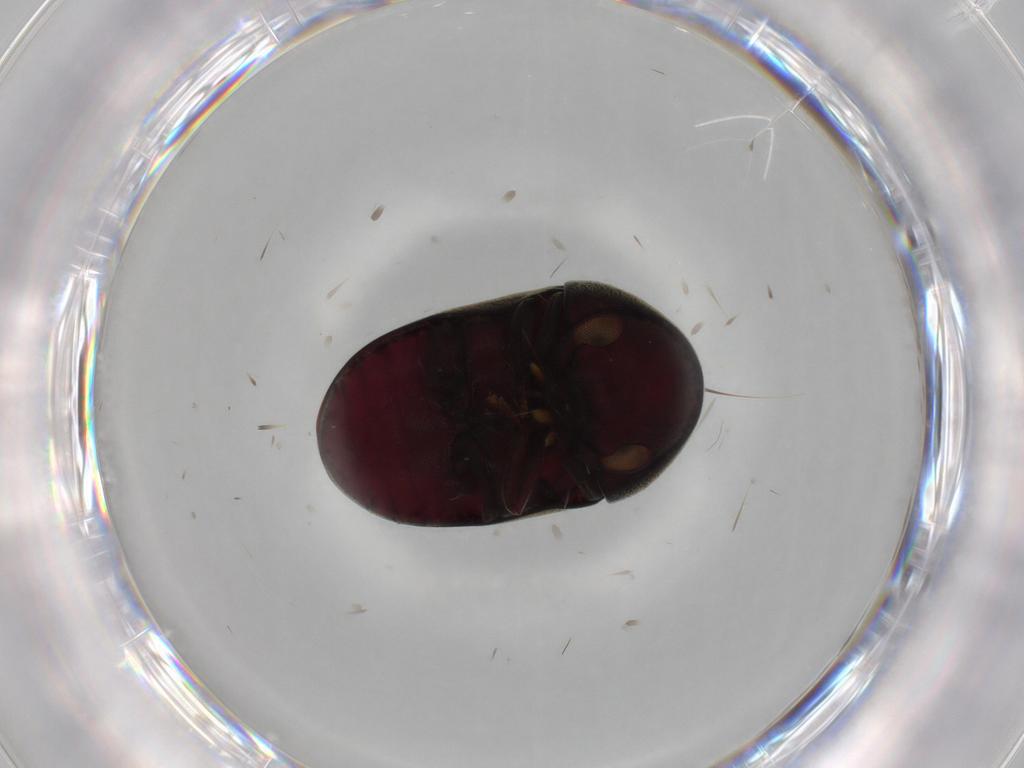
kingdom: Animalia
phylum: Arthropoda
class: Insecta
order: Coleoptera
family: Ptinidae
